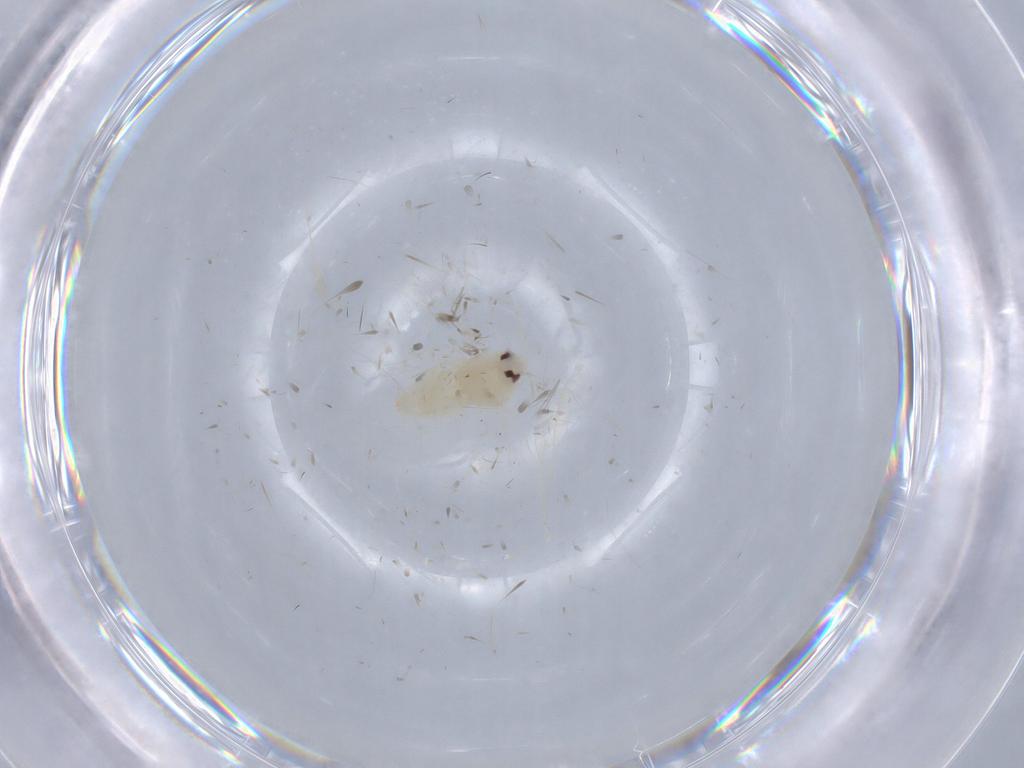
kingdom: Animalia
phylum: Arthropoda
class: Insecta
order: Hemiptera
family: Aleyrodidae
